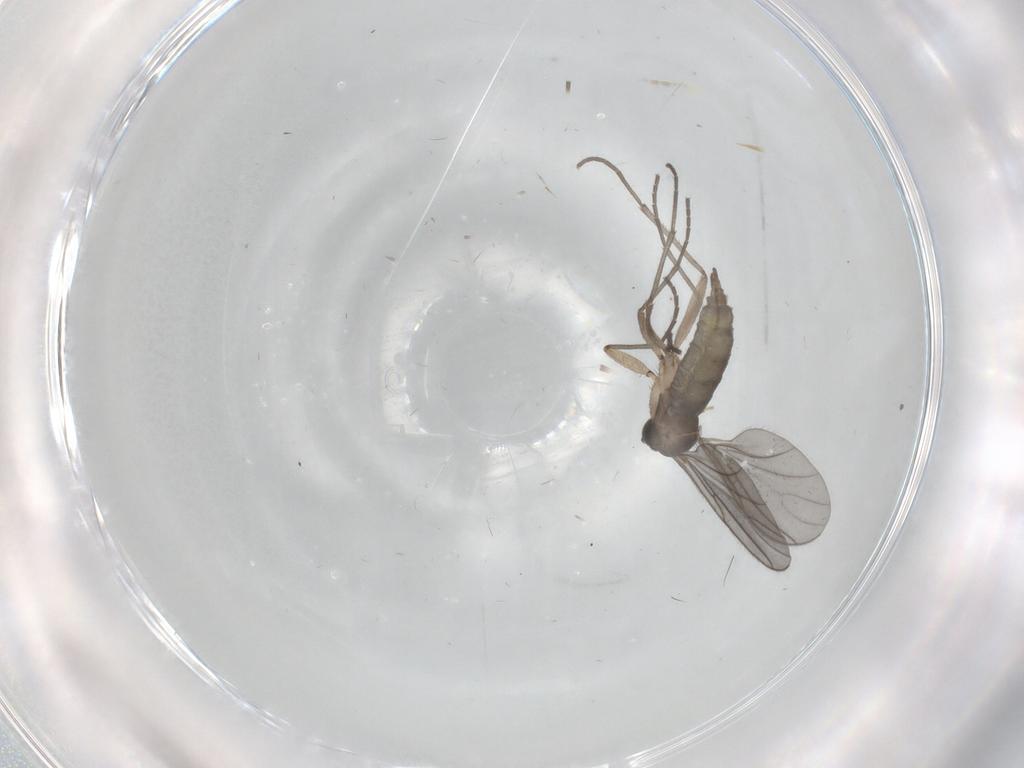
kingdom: Animalia
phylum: Arthropoda
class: Insecta
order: Diptera
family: Sciaridae
